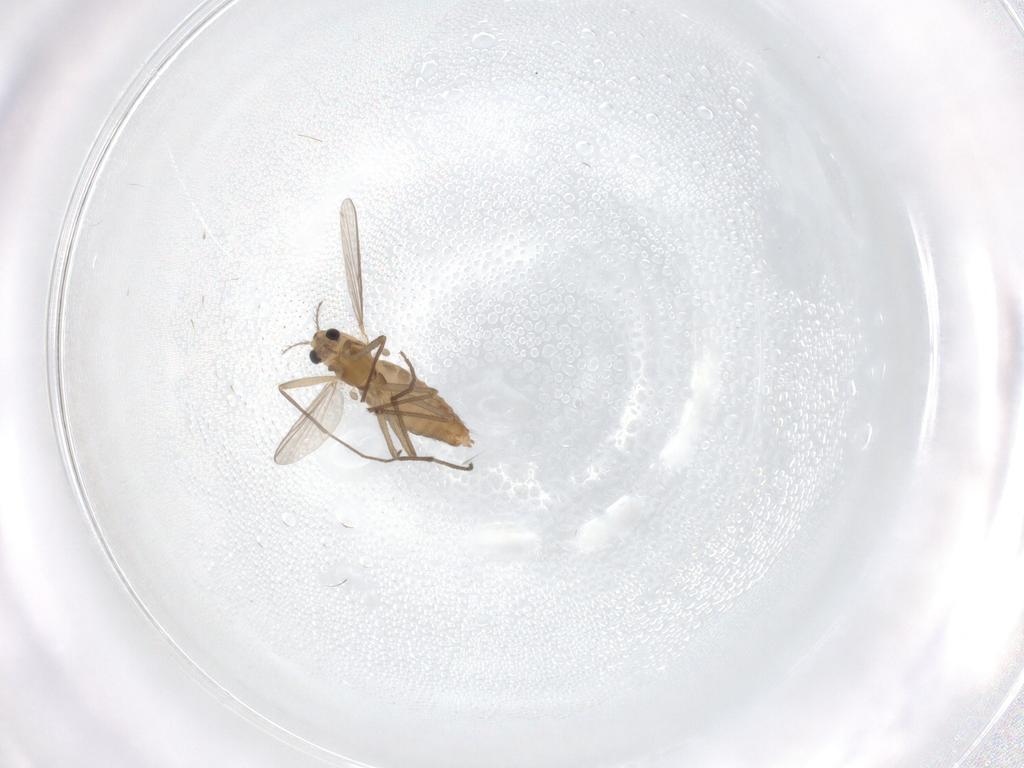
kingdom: Animalia
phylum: Arthropoda
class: Insecta
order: Diptera
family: Chironomidae
